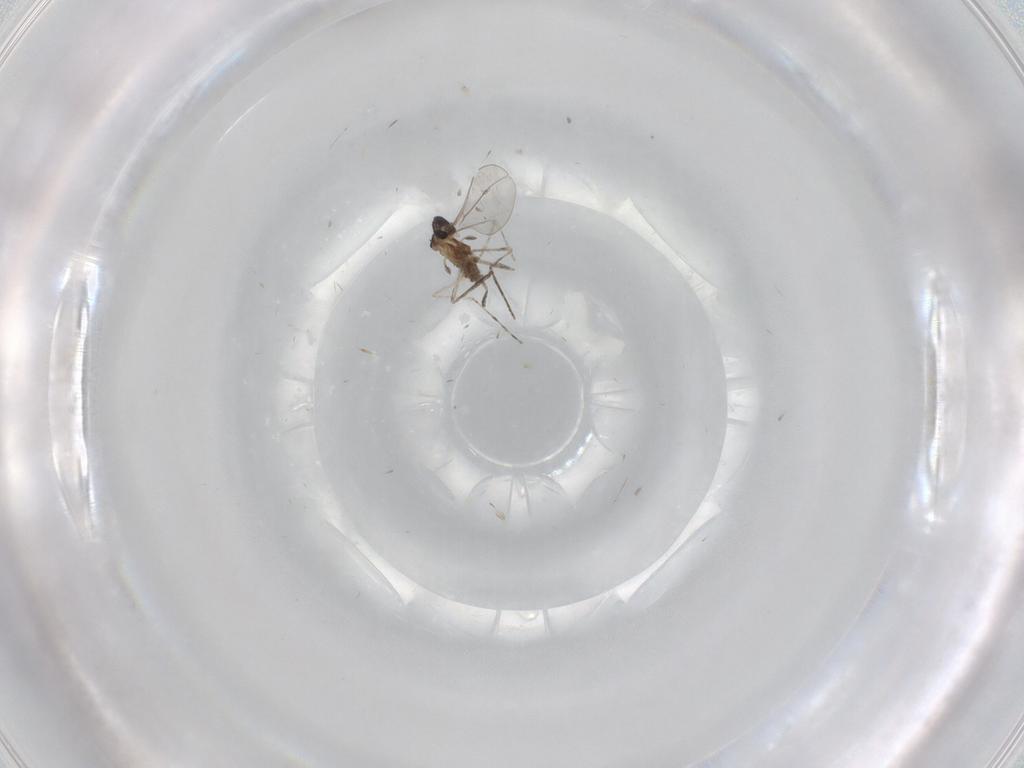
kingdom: Animalia
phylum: Arthropoda
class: Insecta
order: Diptera
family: Cecidomyiidae
